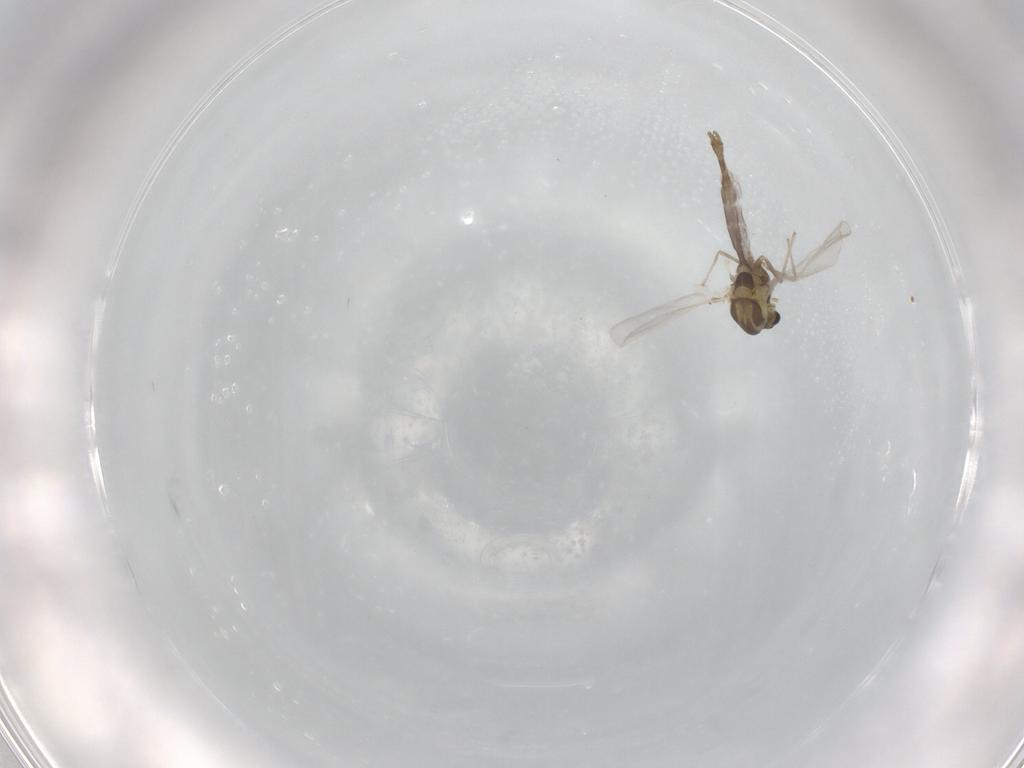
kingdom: Animalia
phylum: Arthropoda
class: Insecta
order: Diptera
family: Chironomidae
